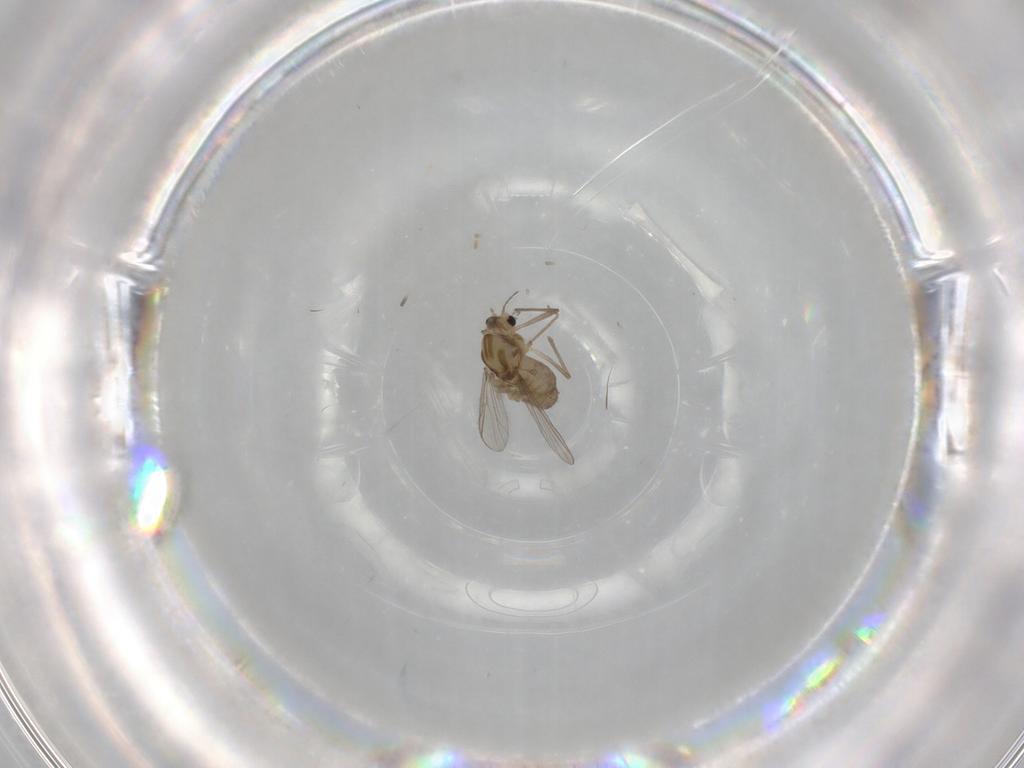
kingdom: Animalia
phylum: Arthropoda
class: Insecta
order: Diptera
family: Chironomidae
